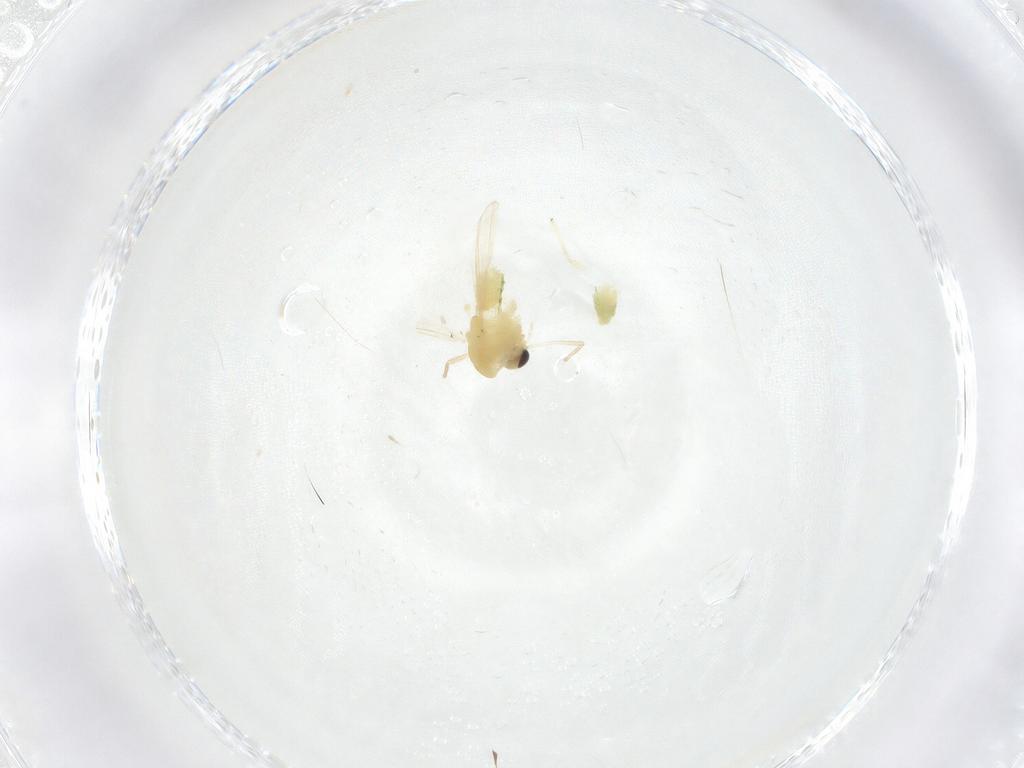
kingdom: Animalia
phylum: Arthropoda
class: Insecta
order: Diptera
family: Chironomidae
